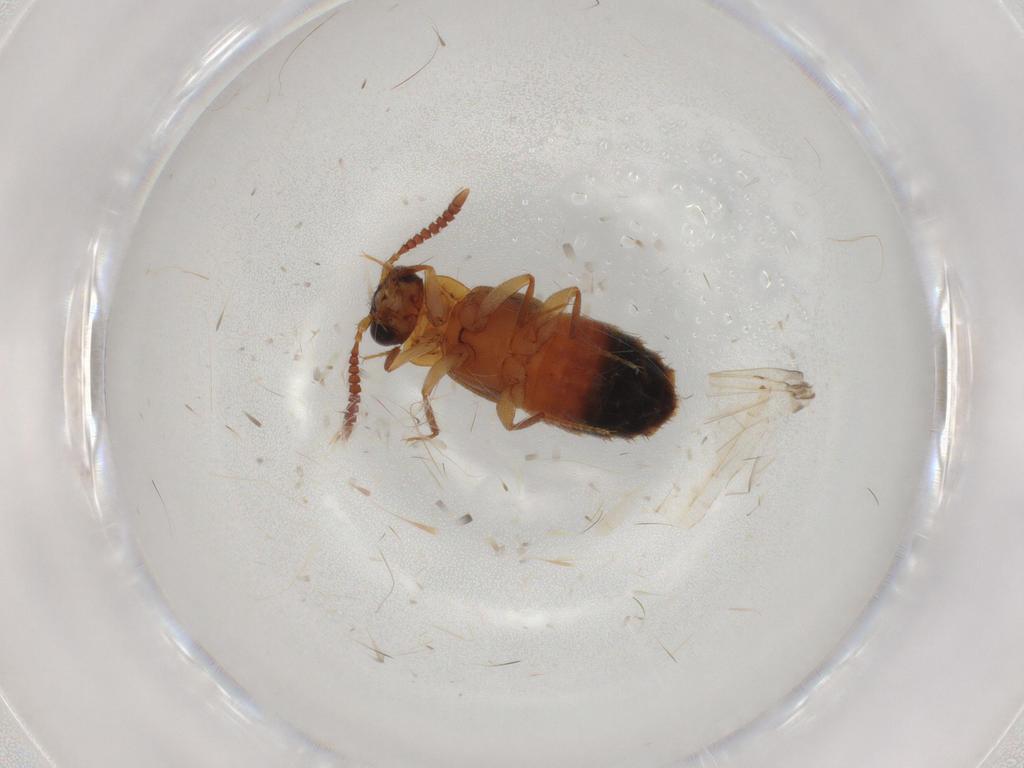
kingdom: Animalia
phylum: Arthropoda
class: Insecta
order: Coleoptera
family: Staphylinidae
